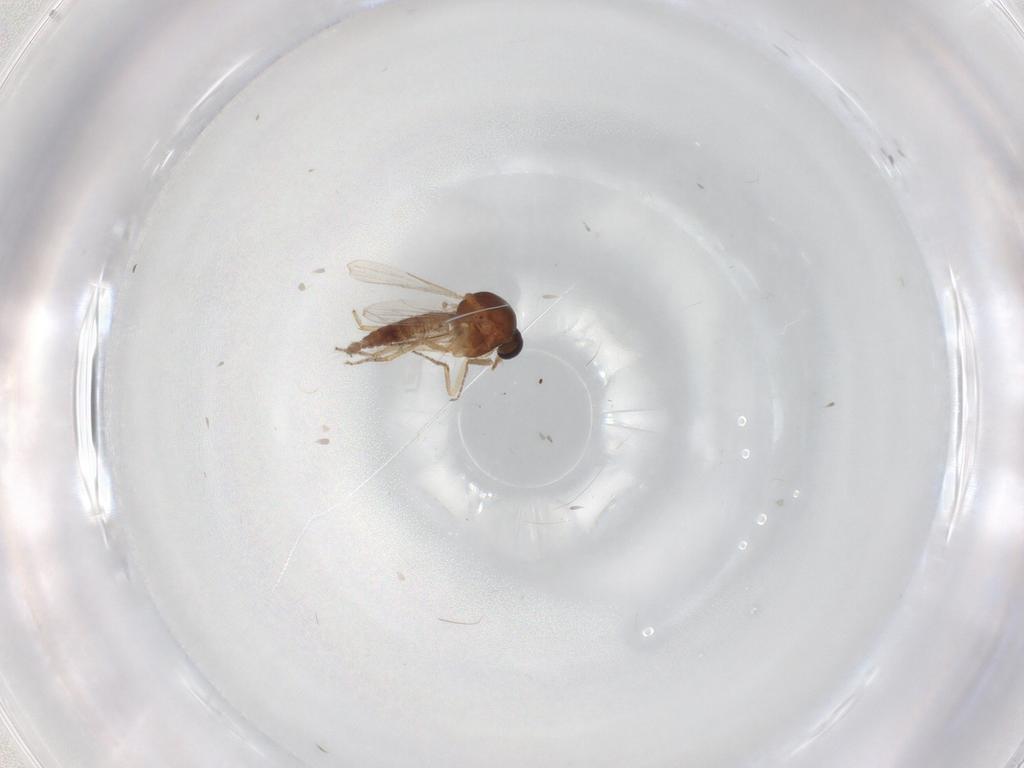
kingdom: Animalia
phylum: Arthropoda
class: Insecta
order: Diptera
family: Ceratopogonidae
